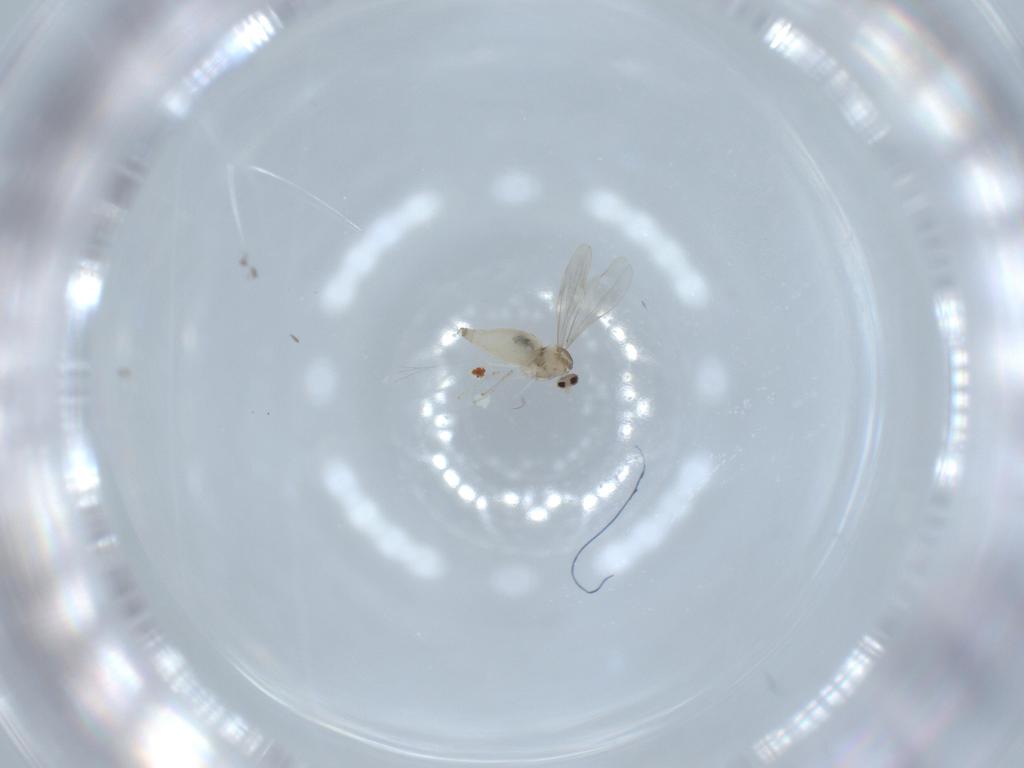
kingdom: Animalia
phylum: Arthropoda
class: Insecta
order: Diptera
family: Cecidomyiidae
